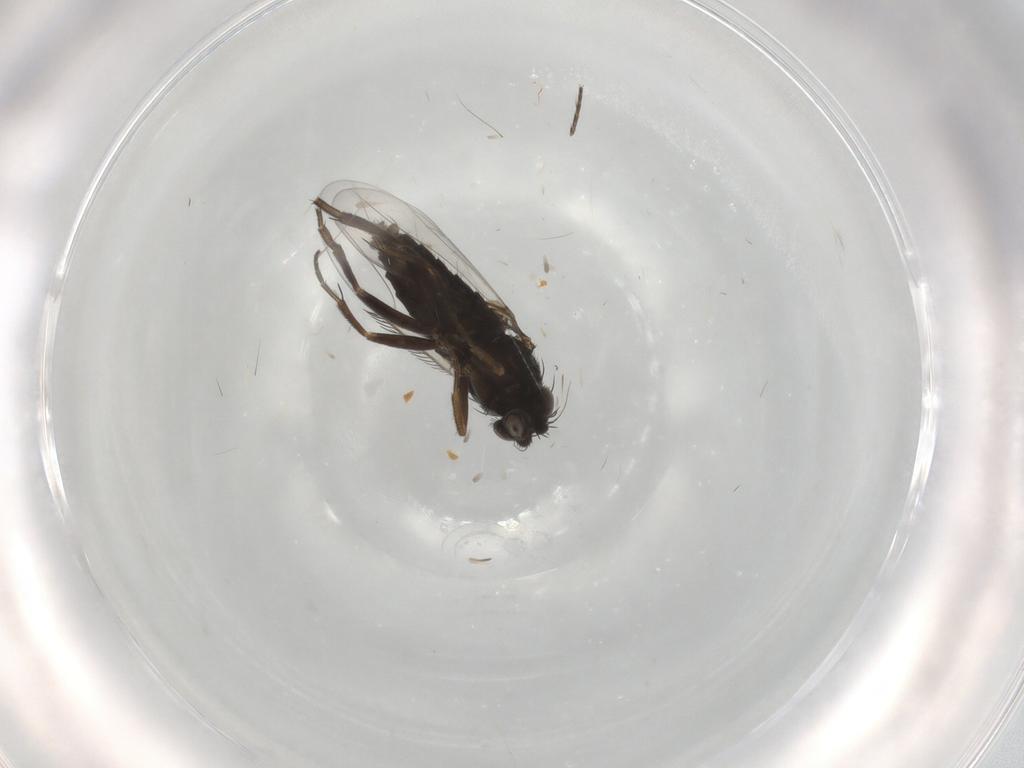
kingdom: Animalia
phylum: Arthropoda
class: Insecta
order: Diptera
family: Phoridae
